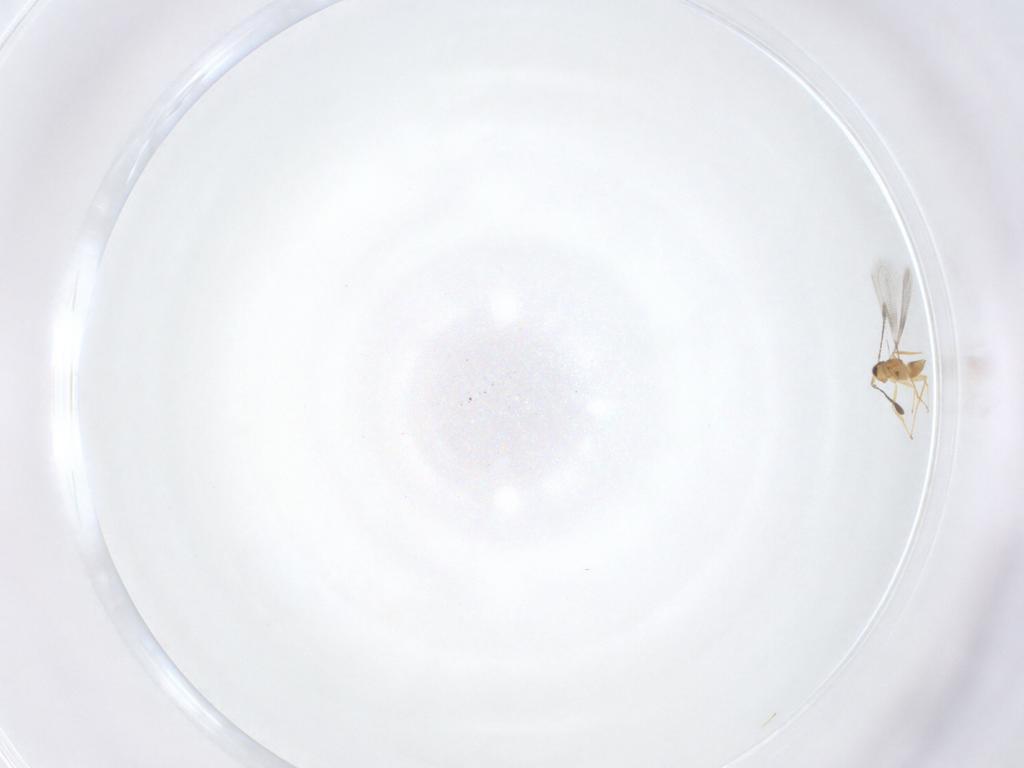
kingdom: Animalia
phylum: Arthropoda
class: Insecta
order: Hymenoptera
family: Mymaridae
